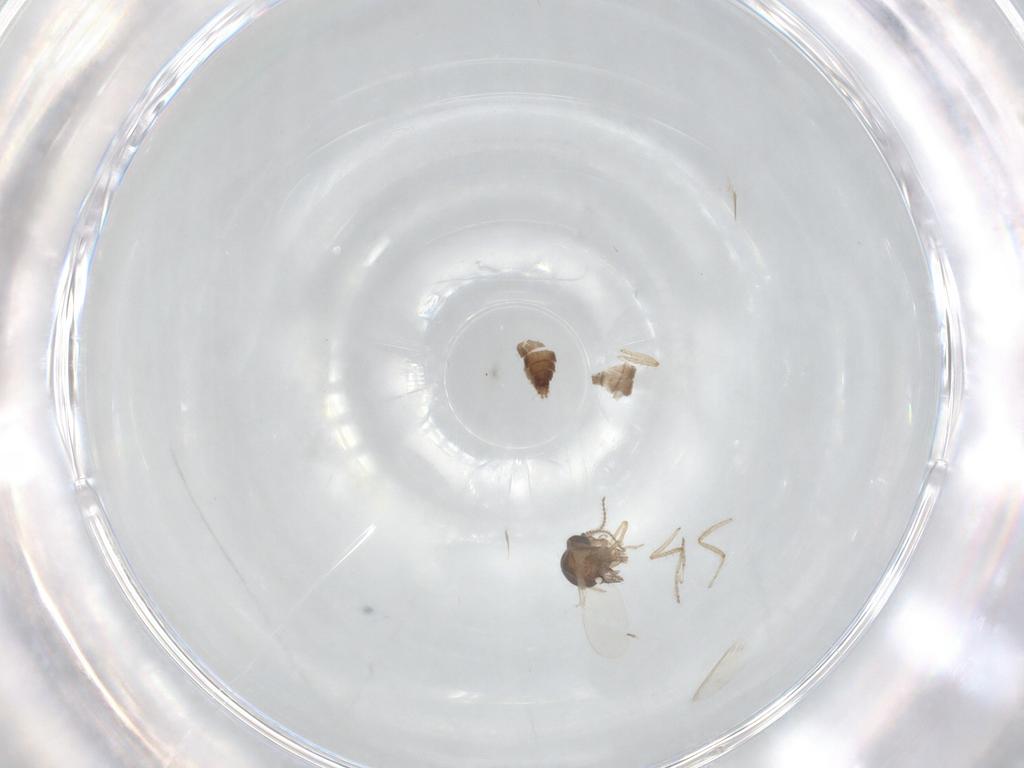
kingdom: Animalia
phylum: Arthropoda
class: Insecta
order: Diptera
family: Ceratopogonidae
